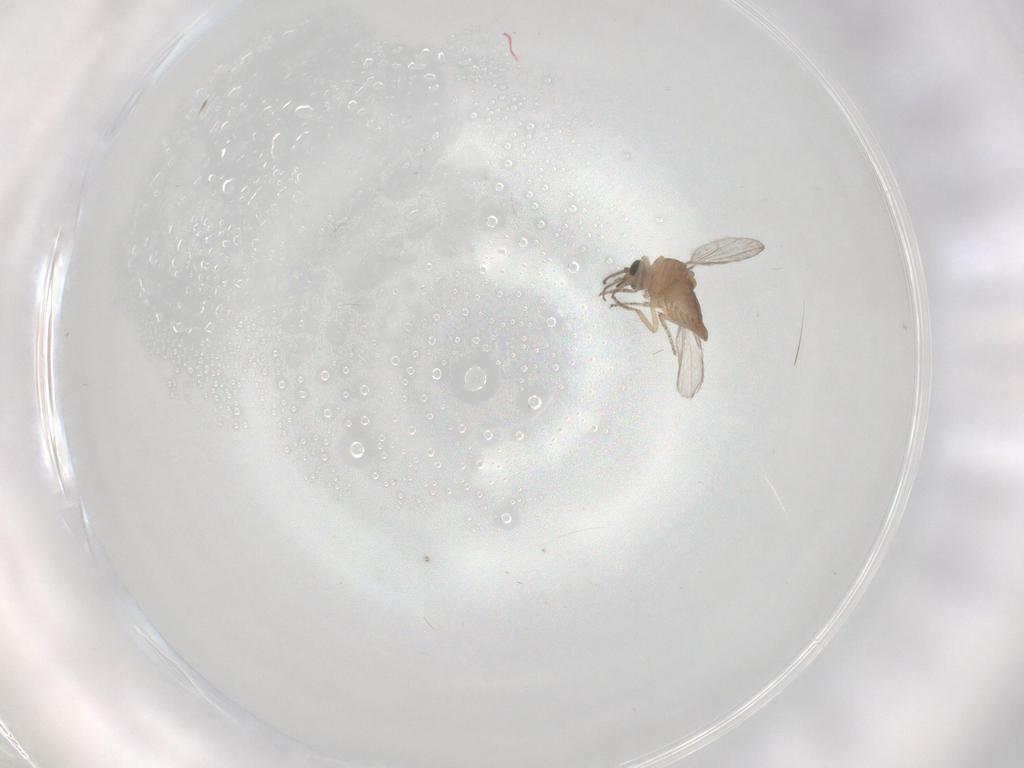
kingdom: Animalia
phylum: Arthropoda
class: Insecta
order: Diptera
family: Ceratopogonidae
